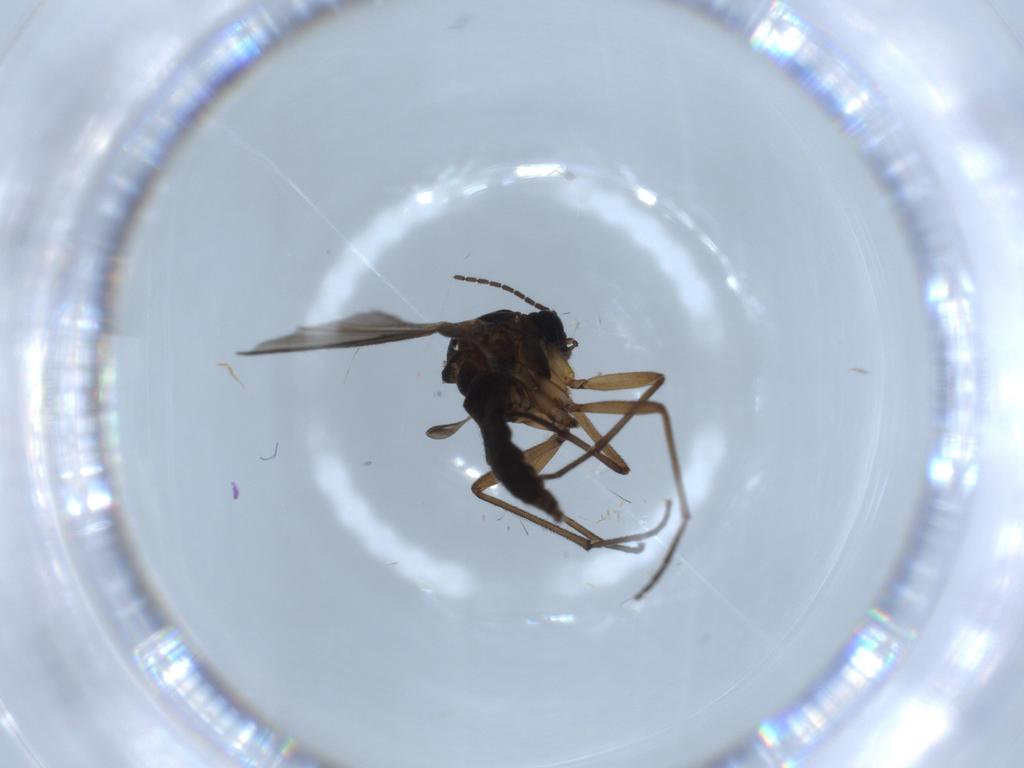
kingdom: Animalia
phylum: Arthropoda
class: Insecta
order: Diptera
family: Sciaridae
